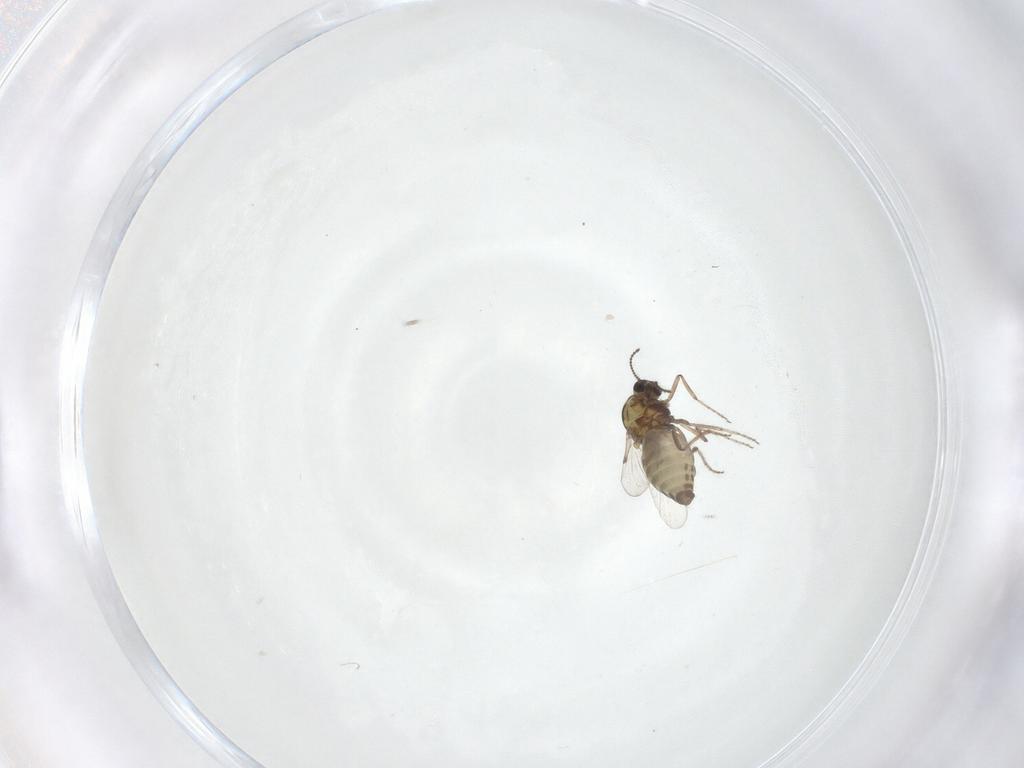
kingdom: Animalia
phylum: Arthropoda
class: Insecta
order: Diptera
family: Ceratopogonidae
